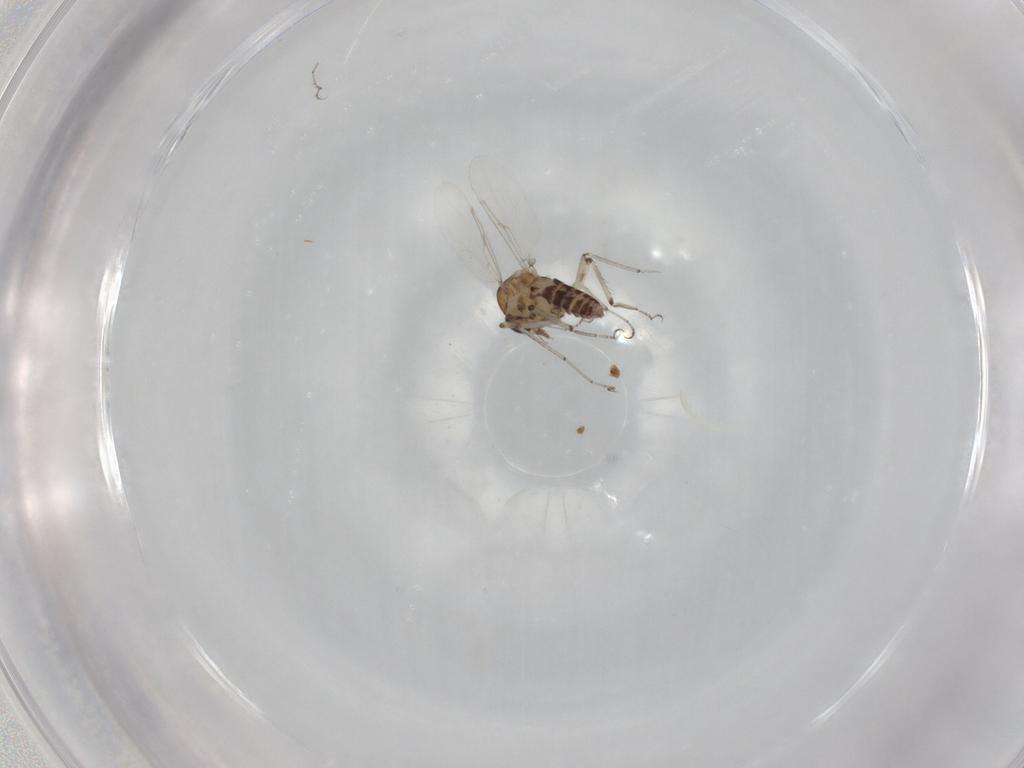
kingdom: Animalia
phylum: Arthropoda
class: Insecta
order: Diptera
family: Ceratopogonidae
